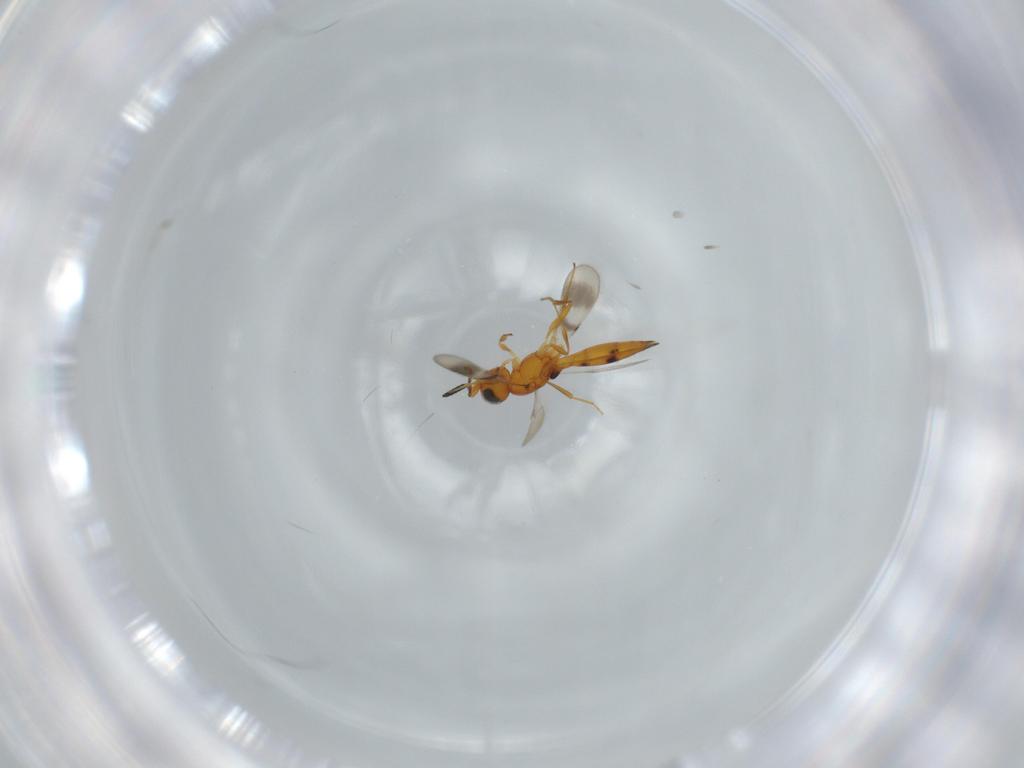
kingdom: Animalia
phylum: Arthropoda
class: Insecta
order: Hymenoptera
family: Scelionidae
